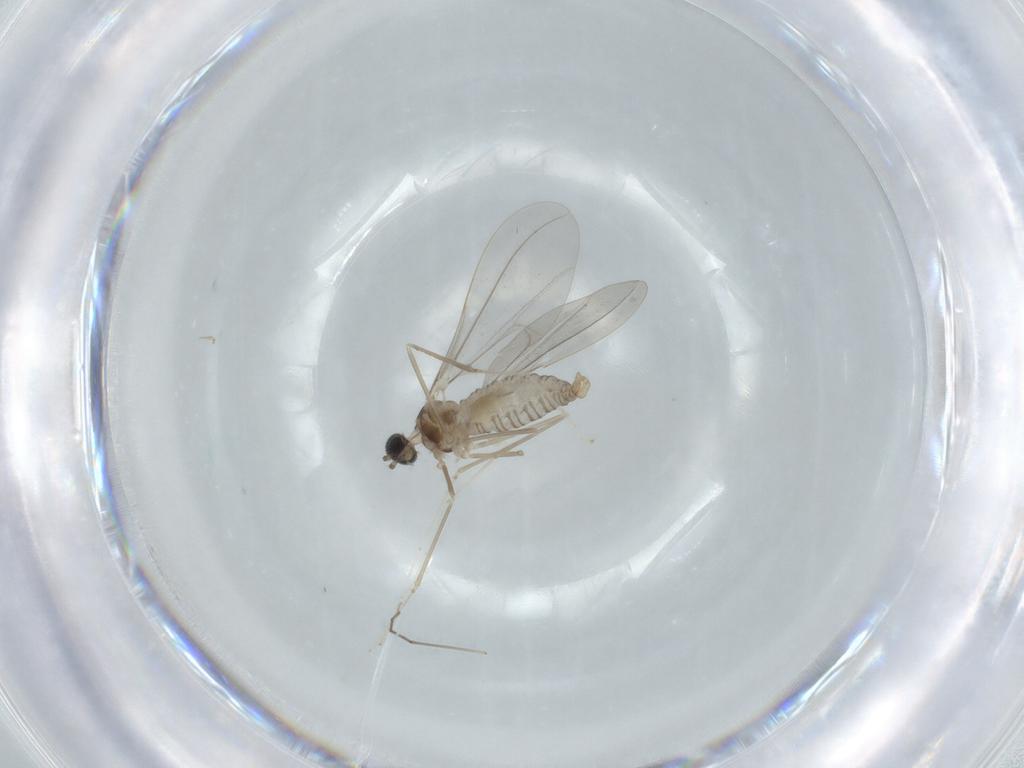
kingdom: Animalia
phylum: Arthropoda
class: Insecta
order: Diptera
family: Cecidomyiidae
